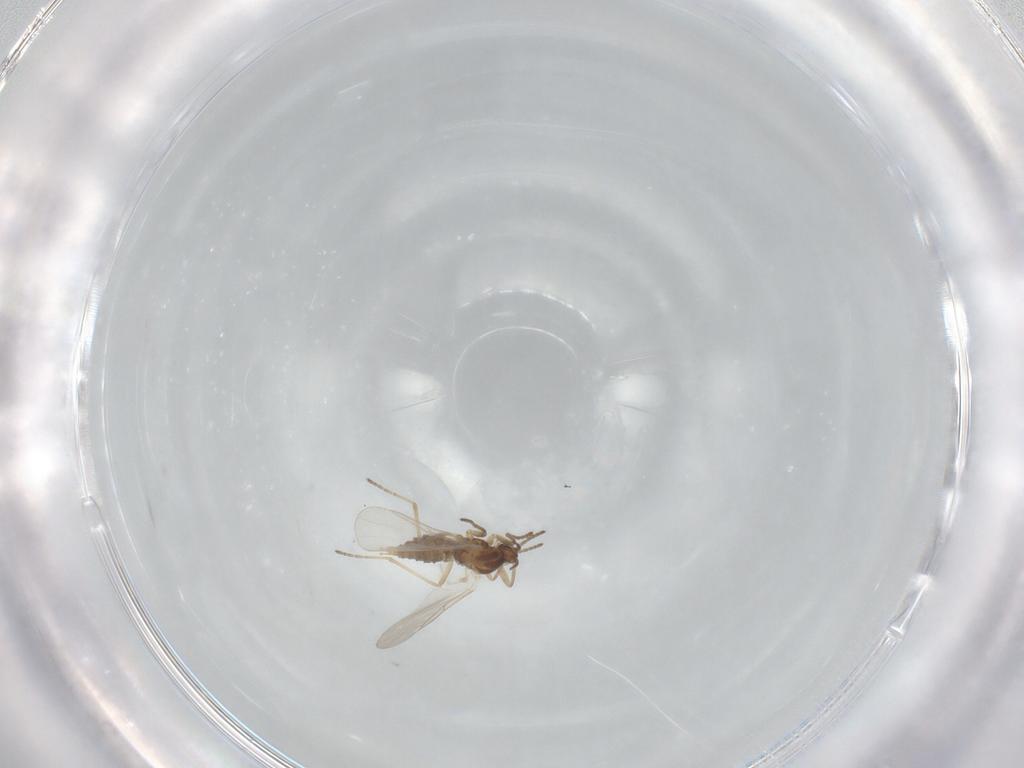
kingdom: Animalia
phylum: Arthropoda
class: Insecta
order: Diptera
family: Cecidomyiidae
